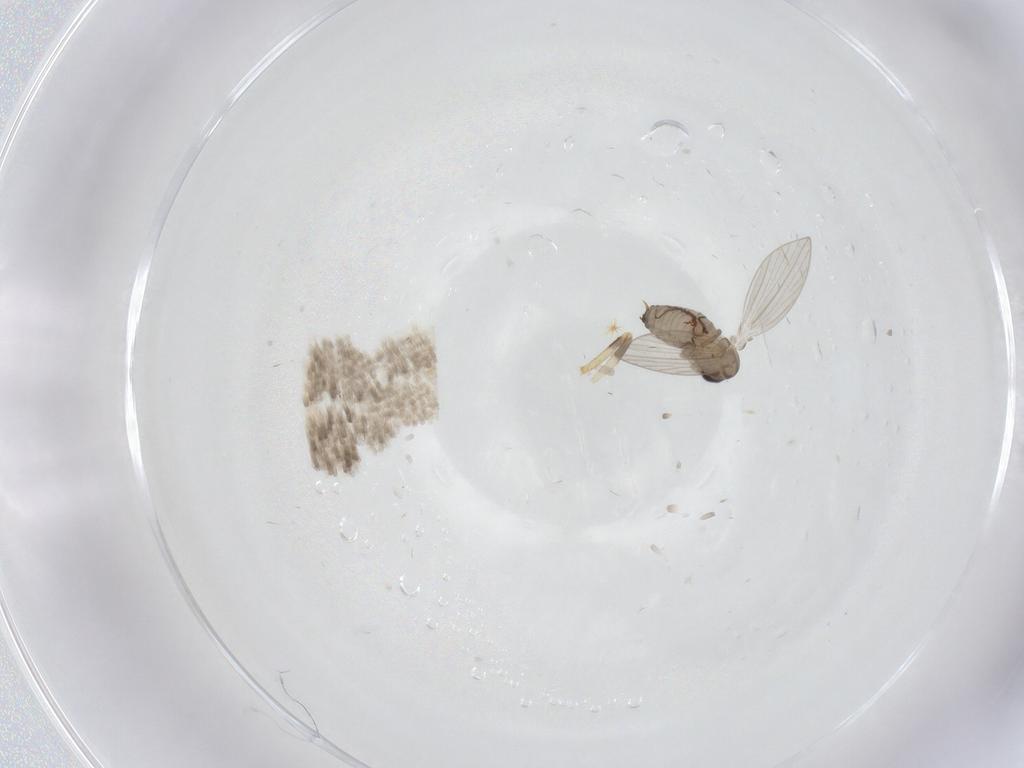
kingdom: Animalia
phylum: Arthropoda
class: Insecta
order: Diptera
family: Psychodidae
